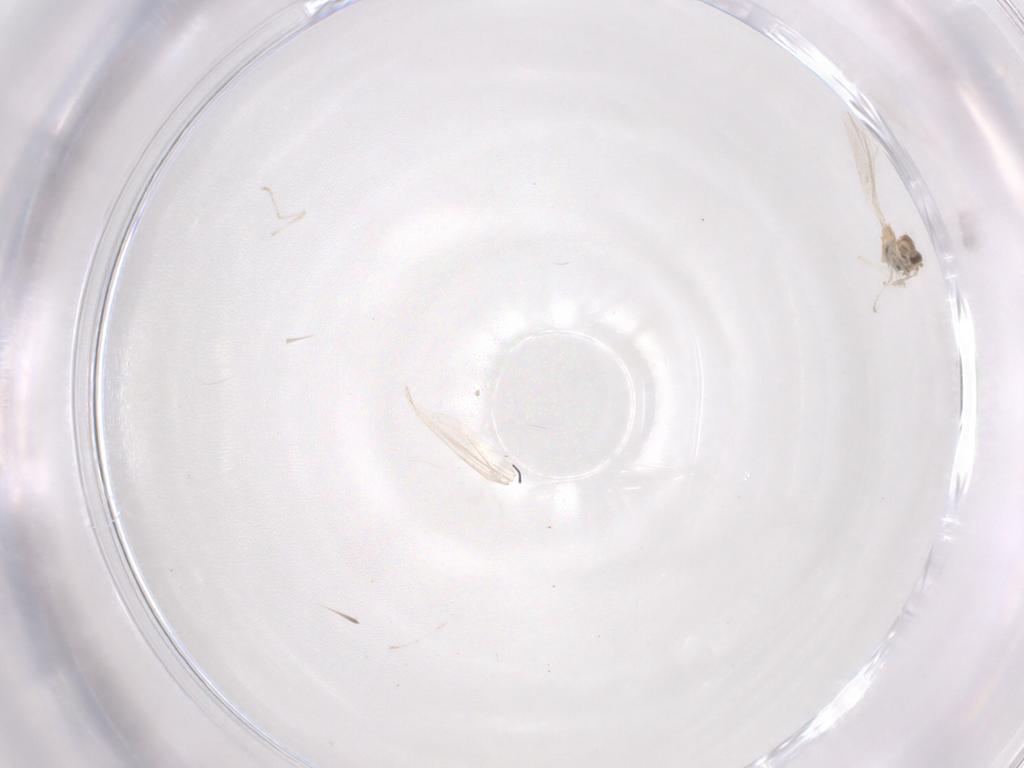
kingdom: Animalia
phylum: Arthropoda
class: Insecta
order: Diptera
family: Cecidomyiidae
